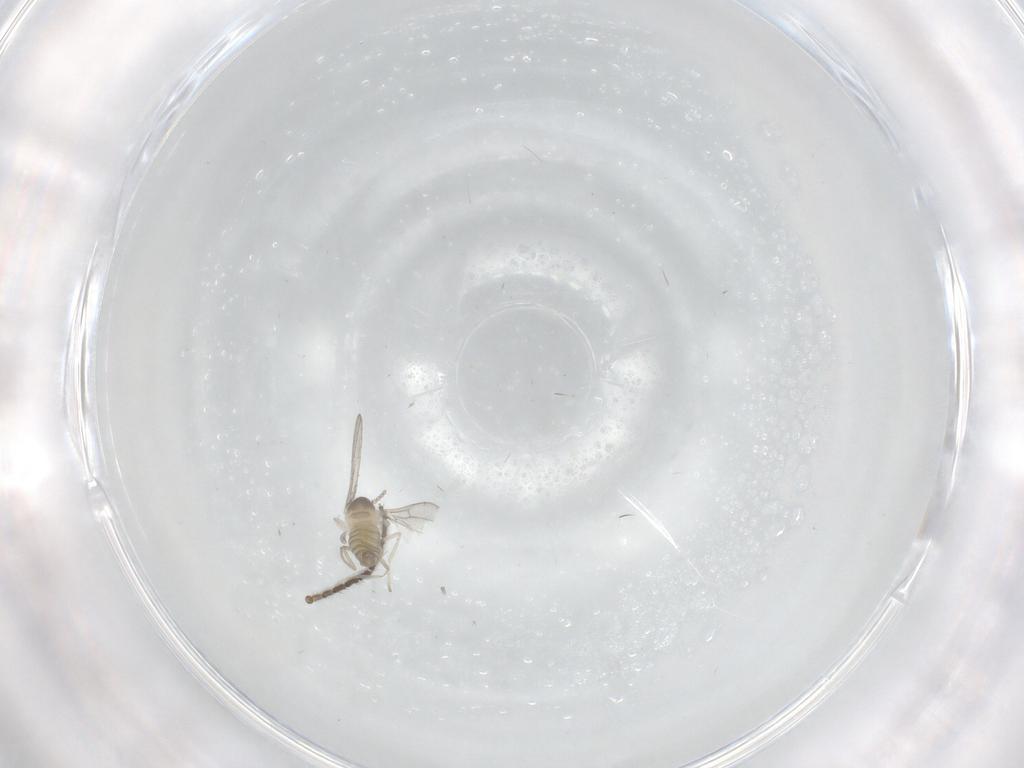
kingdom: Animalia
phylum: Arthropoda
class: Insecta
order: Diptera
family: Cecidomyiidae
